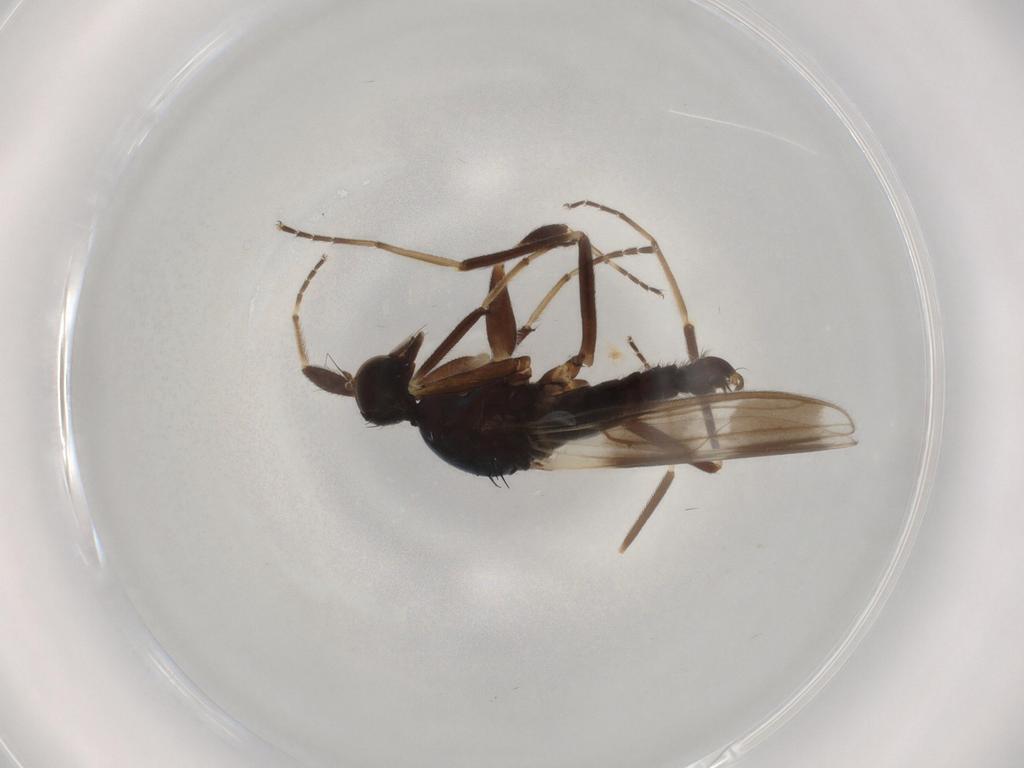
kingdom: Animalia
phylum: Arthropoda
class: Insecta
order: Diptera
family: Hybotidae
